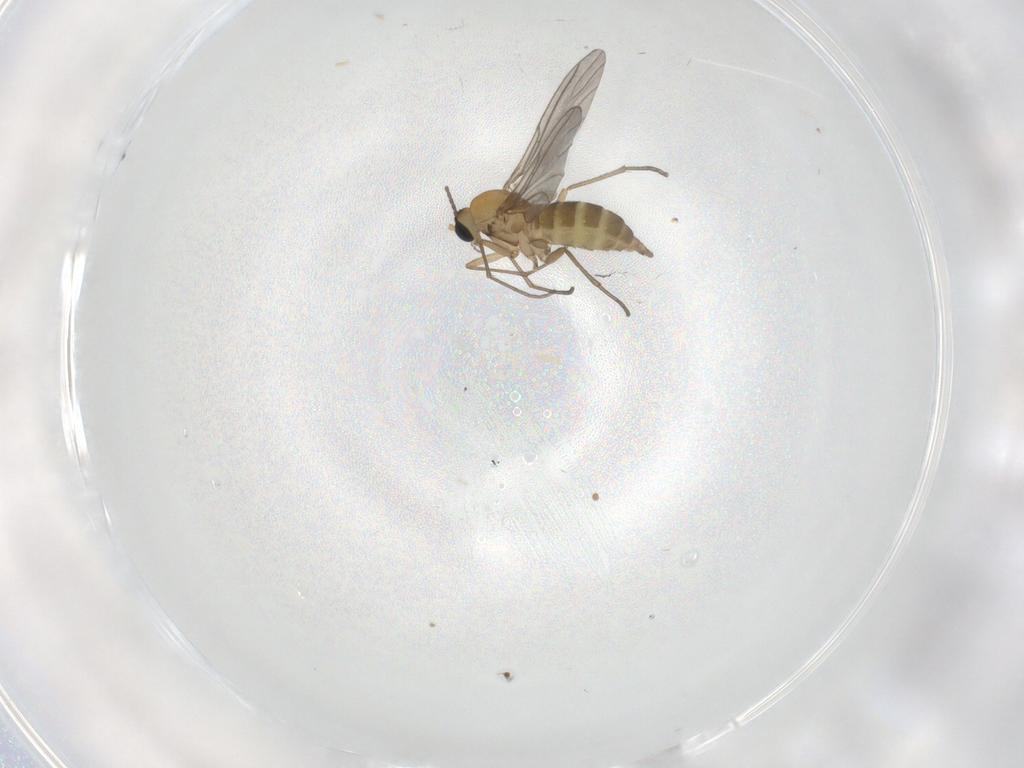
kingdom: Animalia
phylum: Arthropoda
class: Insecta
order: Diptera
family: Sciaridae
